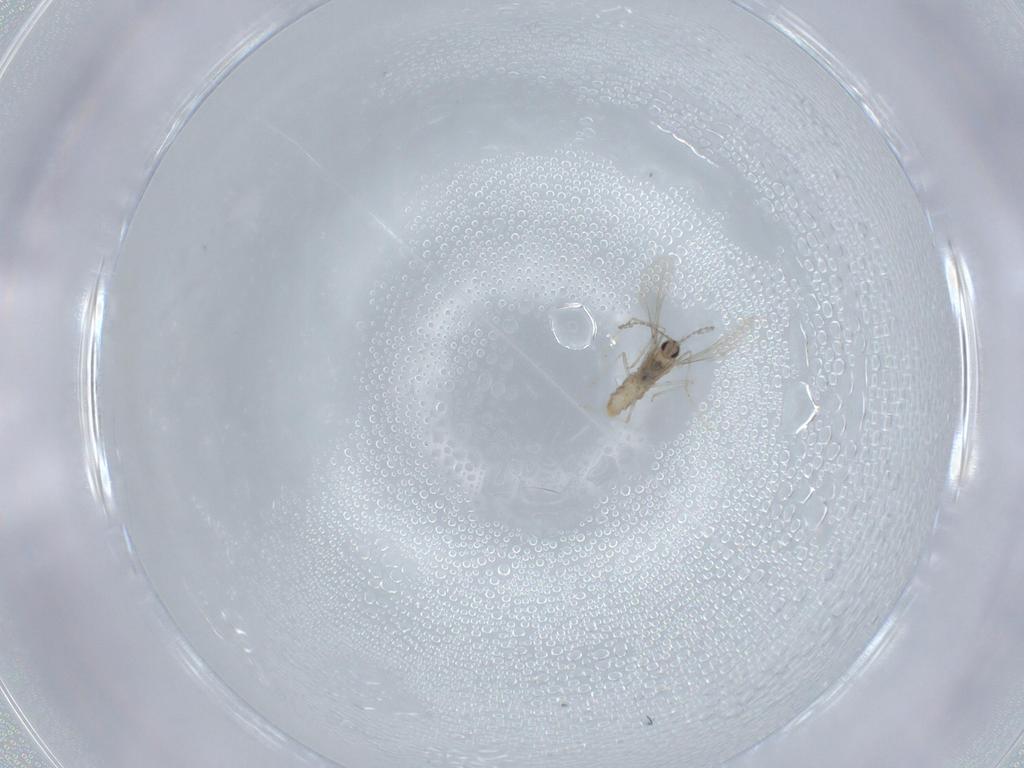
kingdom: Animalia
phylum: Arthropoda
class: Insecta
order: Diptera
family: Cecidomyiidae
